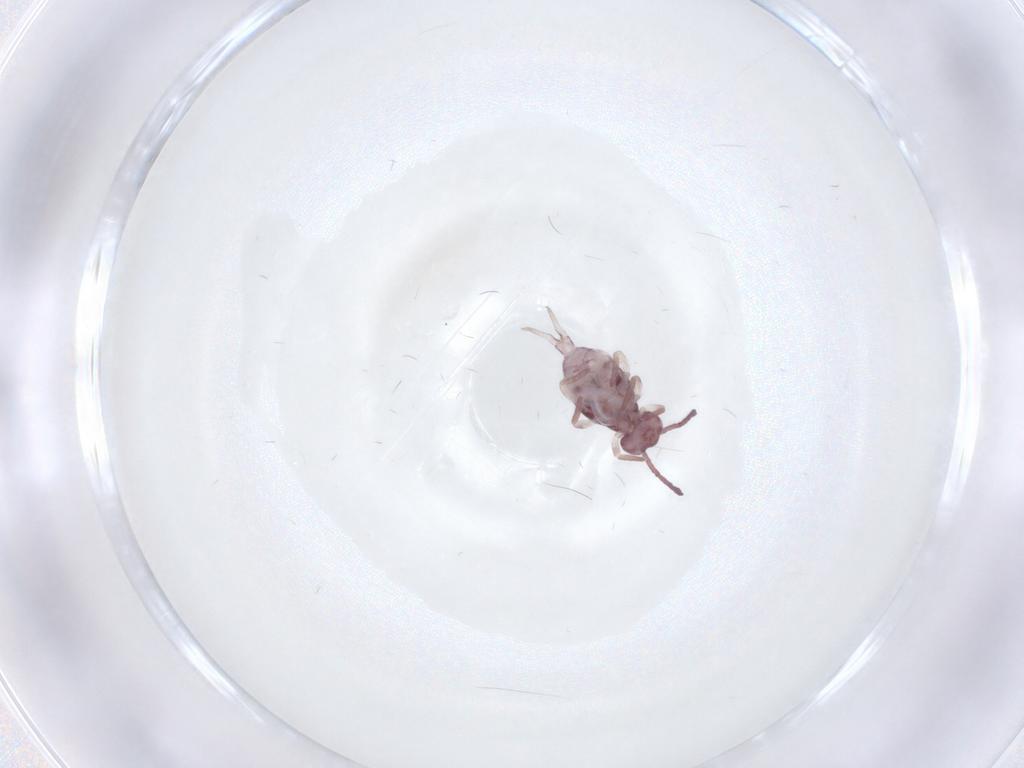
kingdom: Animalia
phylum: Arthropoda
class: Collembola
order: Symphypleona
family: Dicyrtomidae
